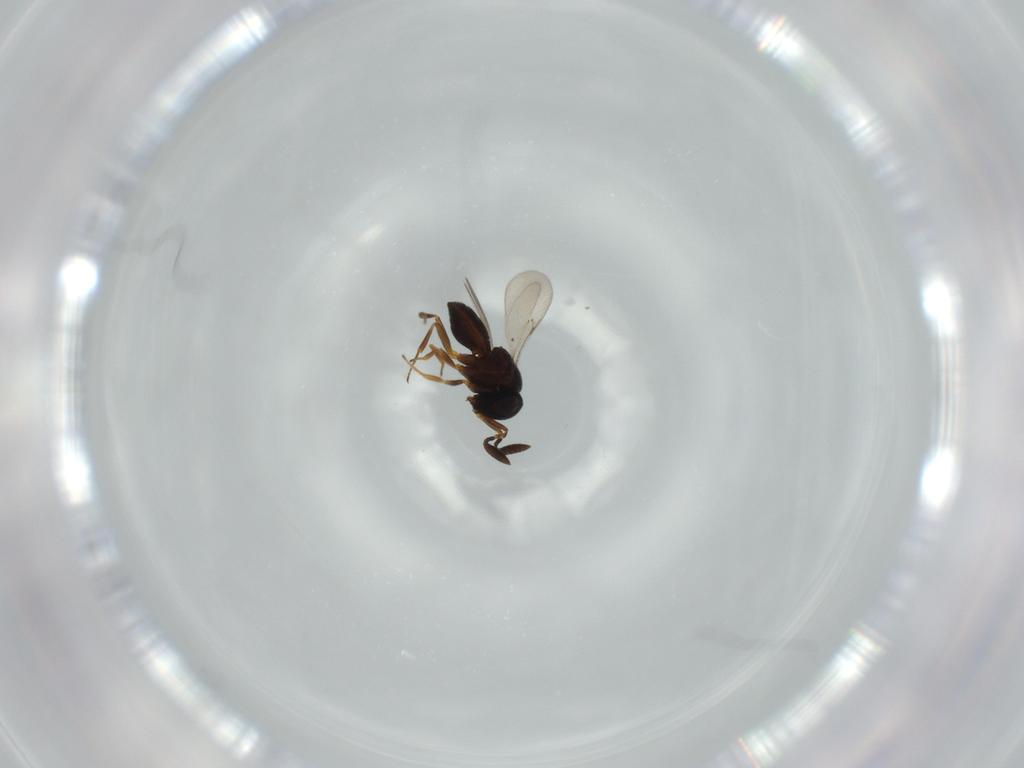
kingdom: Animalia
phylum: Arthropoda
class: Insecta
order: Coleoptera
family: Curculionidae
